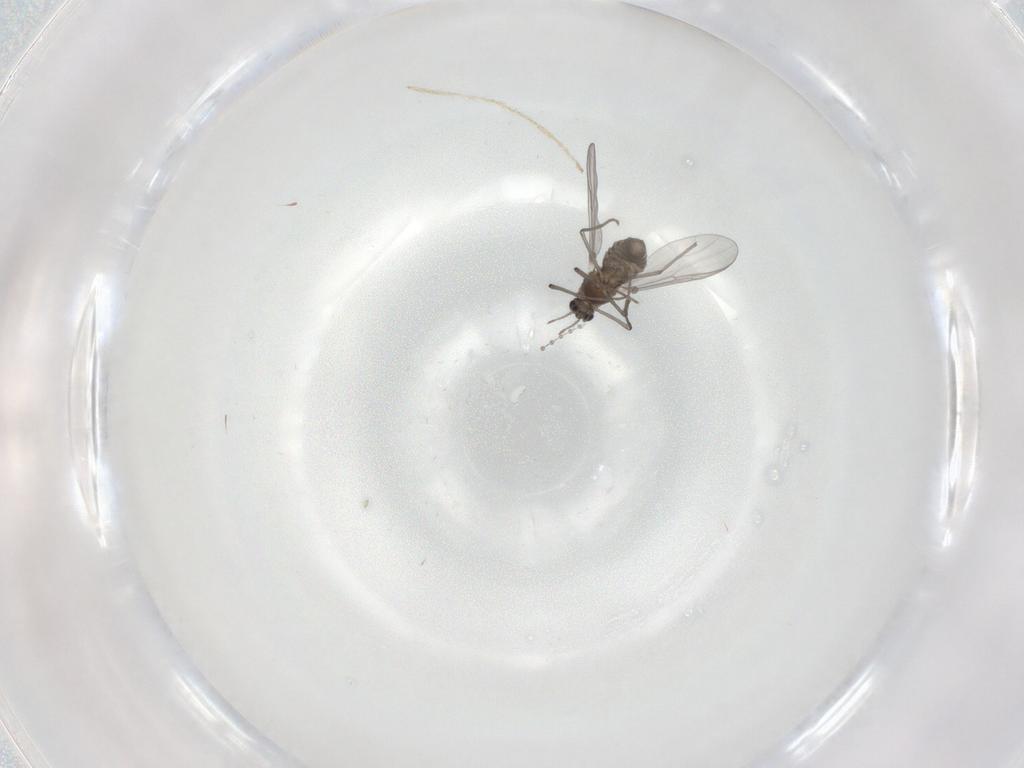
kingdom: Animalia
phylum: Arthropoda
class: Insecta
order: Diptera
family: Chironomidae
